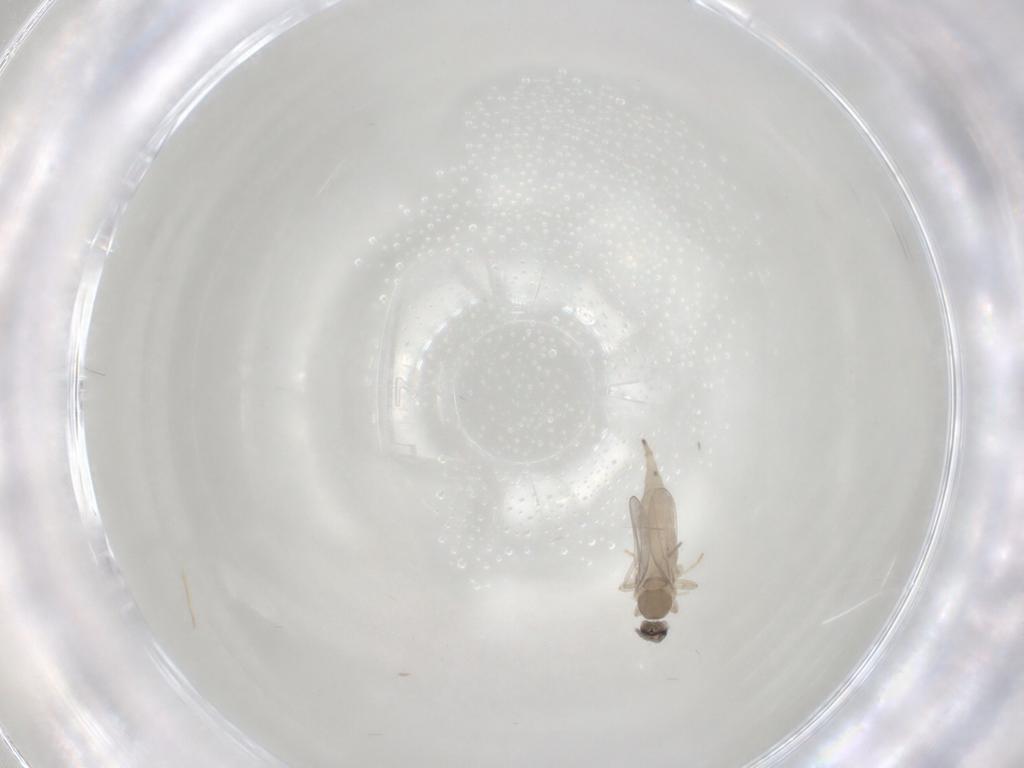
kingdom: Animalia
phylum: Arthropoda
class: Insecta
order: Diptera
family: Cecidomyiidae
